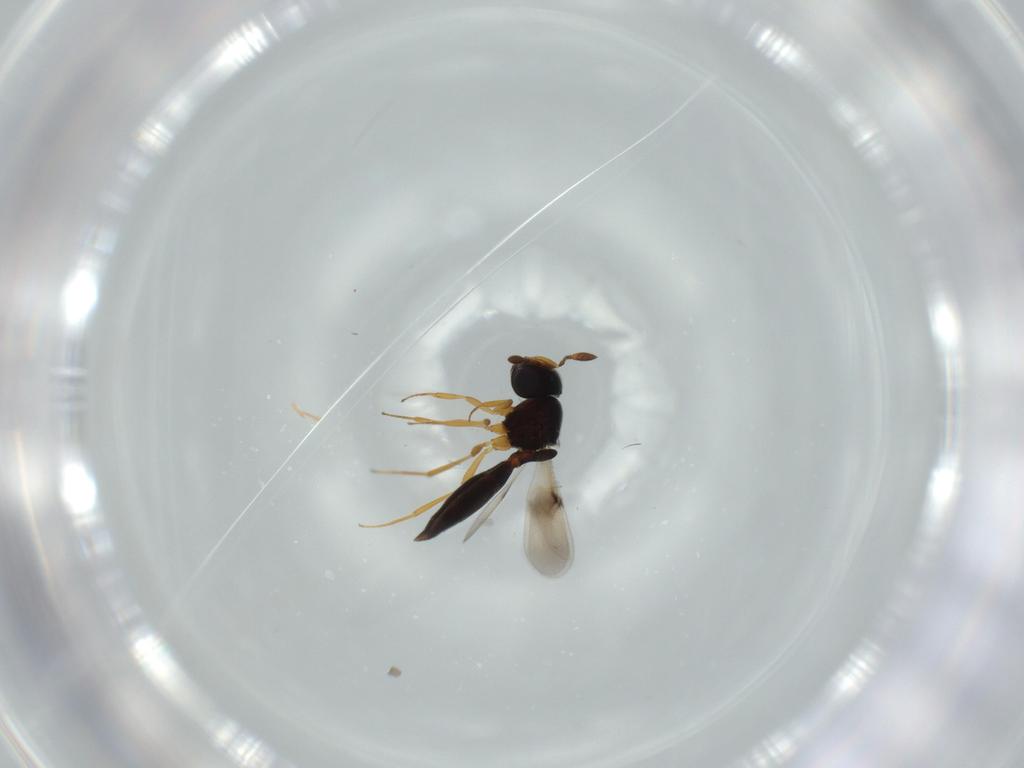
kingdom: Animalia
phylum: Arthropoda
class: Insecta
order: Hymenoptera
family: Scelionidae
